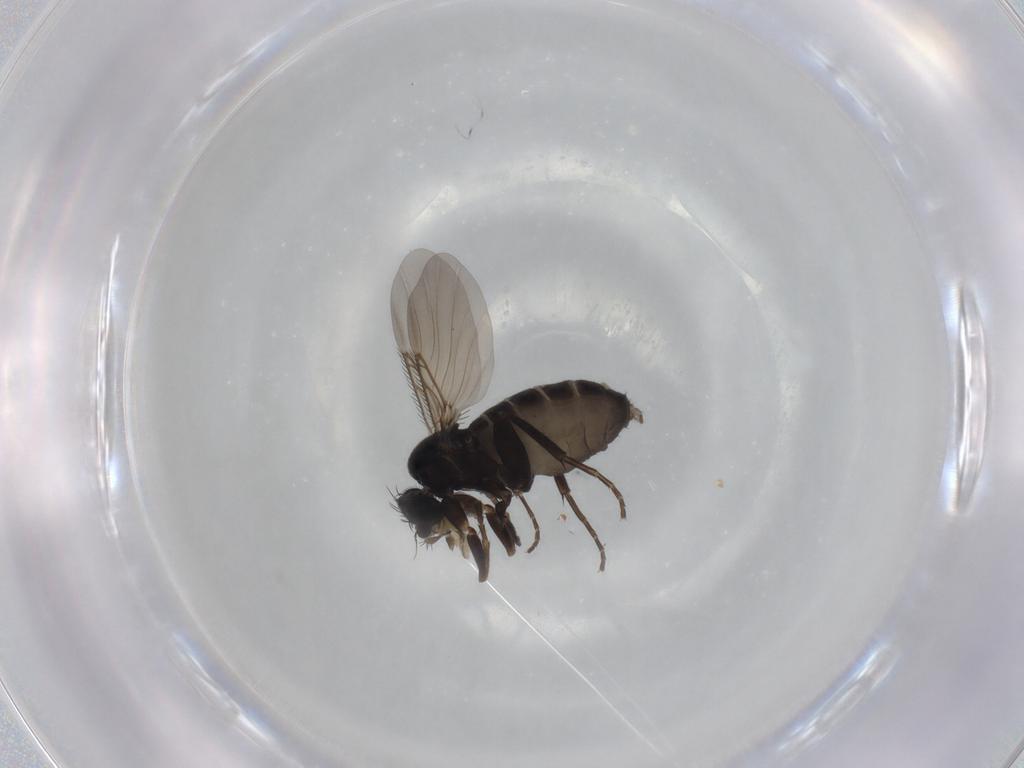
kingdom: Animalia
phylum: Arthropoda
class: Insecta
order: Diptera
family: Phoridae
